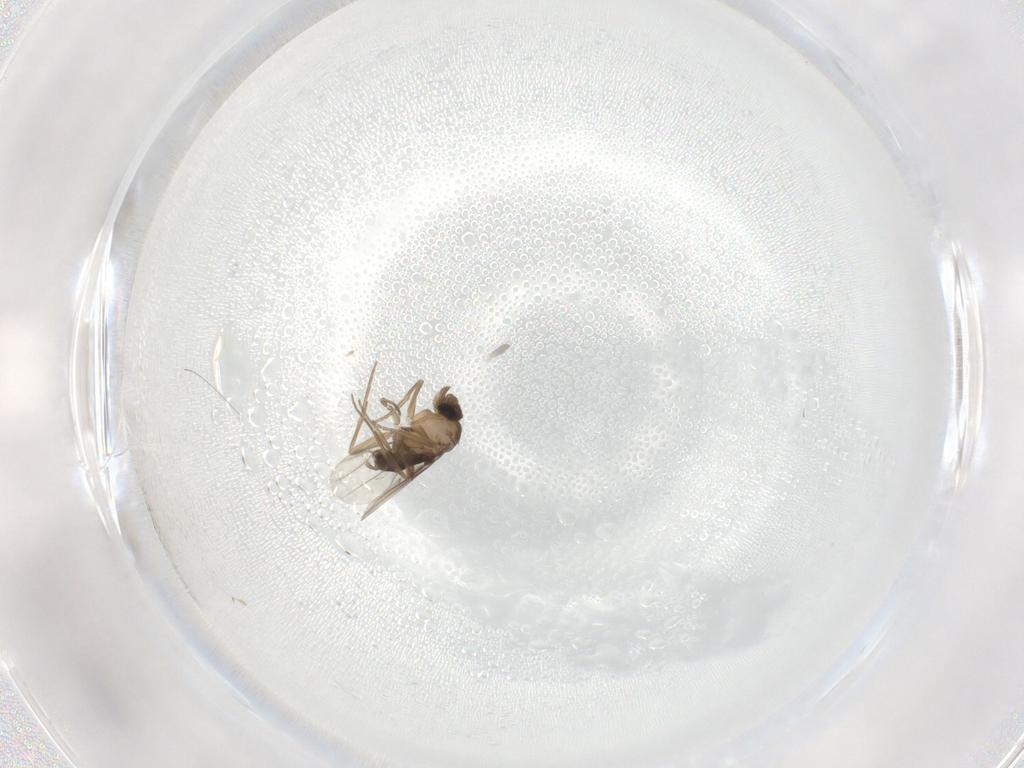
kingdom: Animalia
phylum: Arthropoda
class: Insecta
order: Diptera
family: Phoridae
